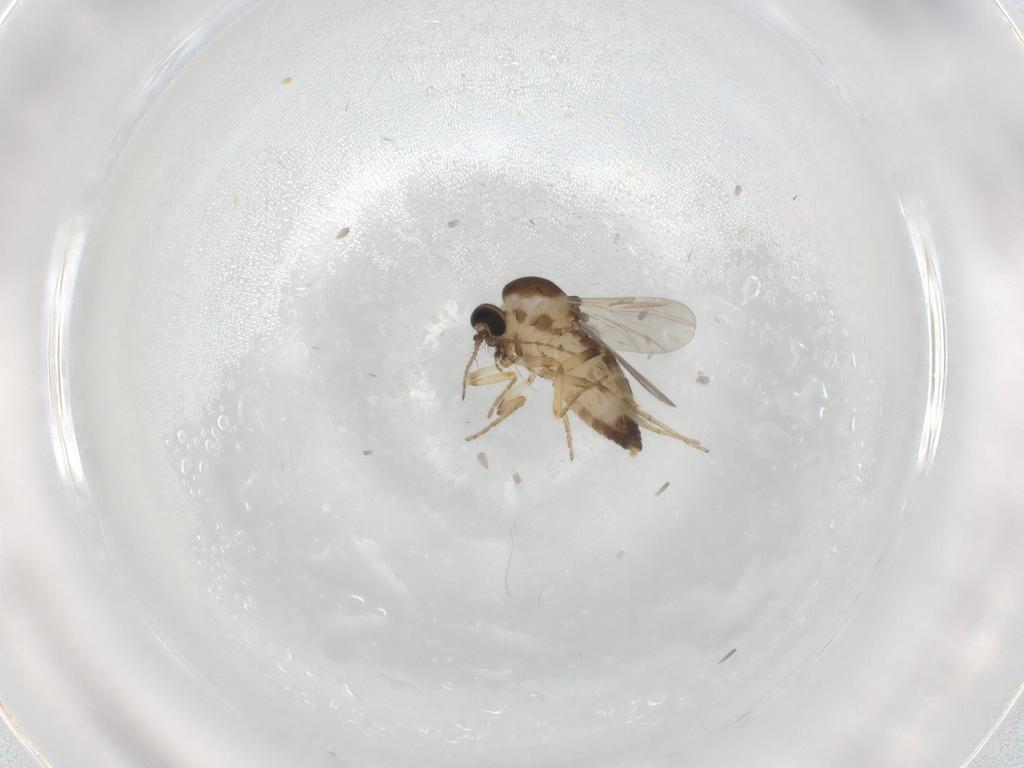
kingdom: Animalia
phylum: Arthropoda
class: Insecta
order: Diptera
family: Ceratopogonidae
